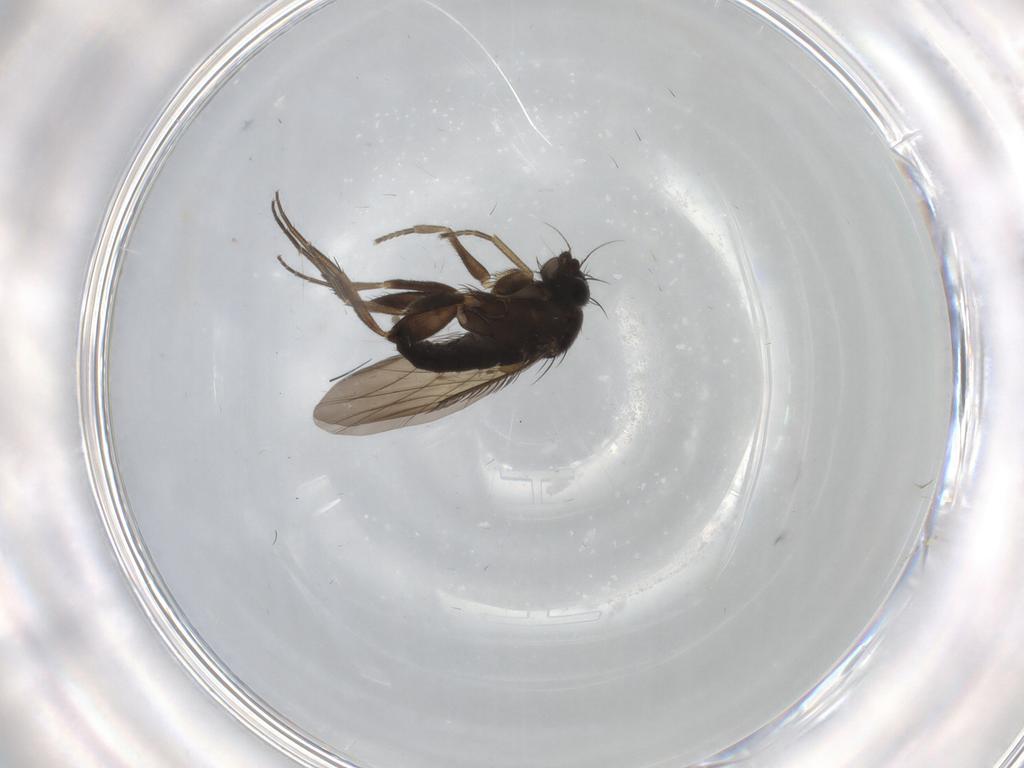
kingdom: Animalia
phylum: Arthropoda
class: Insecta
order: Diptera
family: Phoridae
